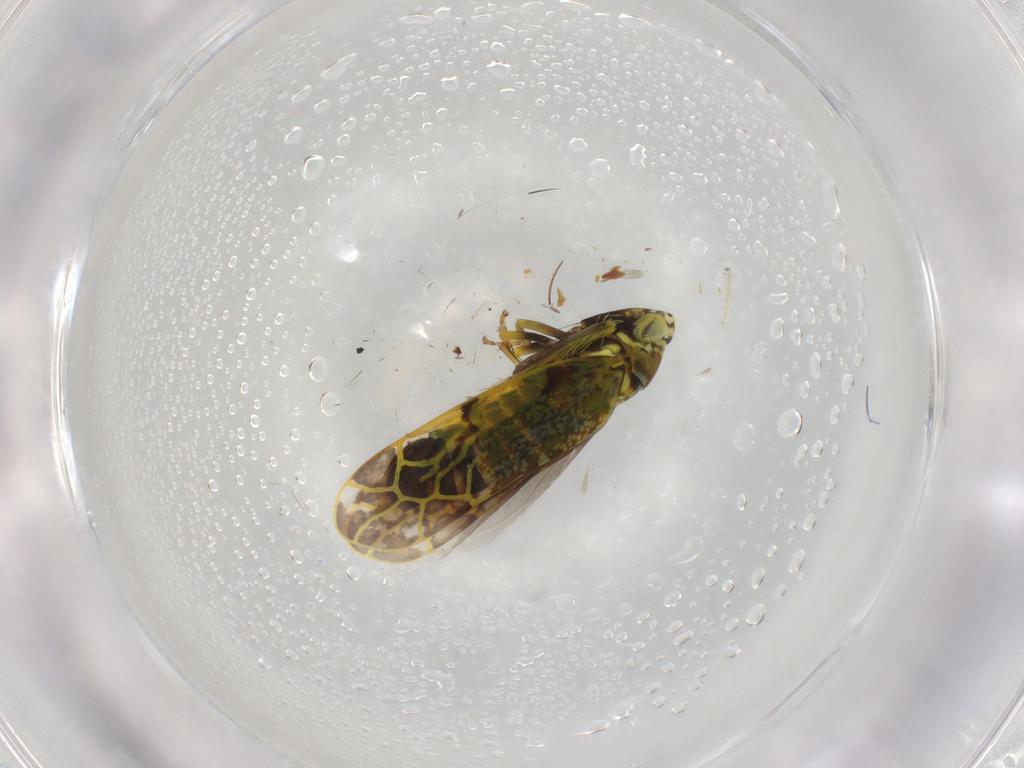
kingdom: Animalia
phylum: Arthropoda
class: Insecta
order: Hemiptera
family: Cicadellidae
